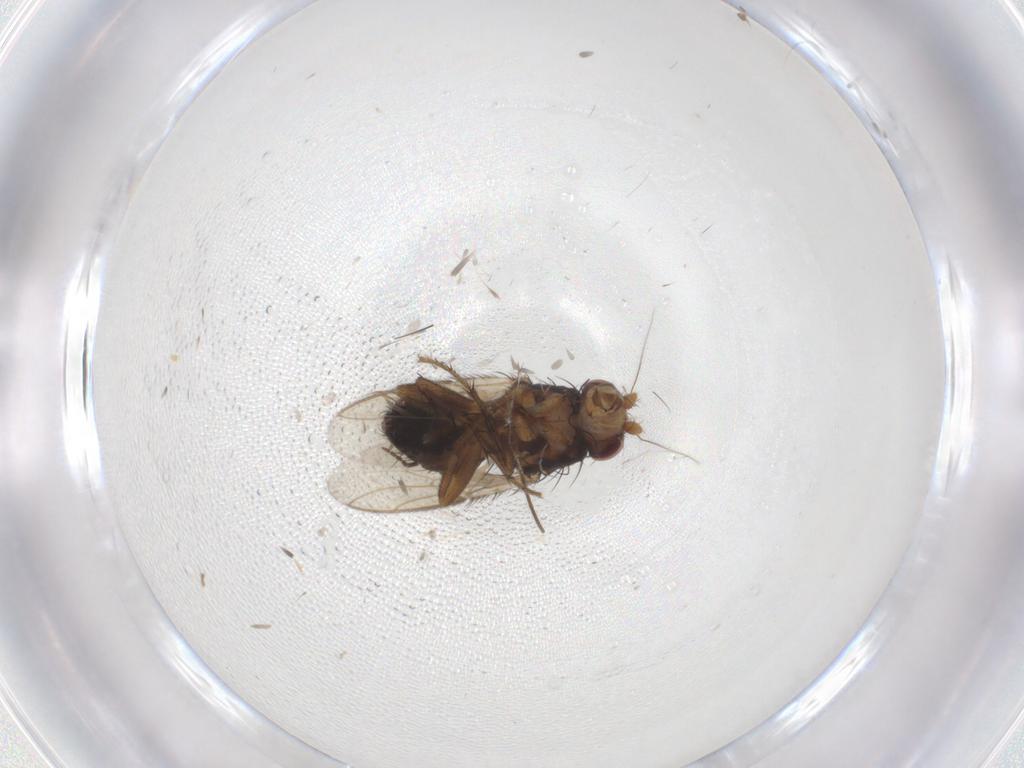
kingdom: Animalia
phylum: Arthropoda
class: Insecta
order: Diptera
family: Sphaeroceridae
